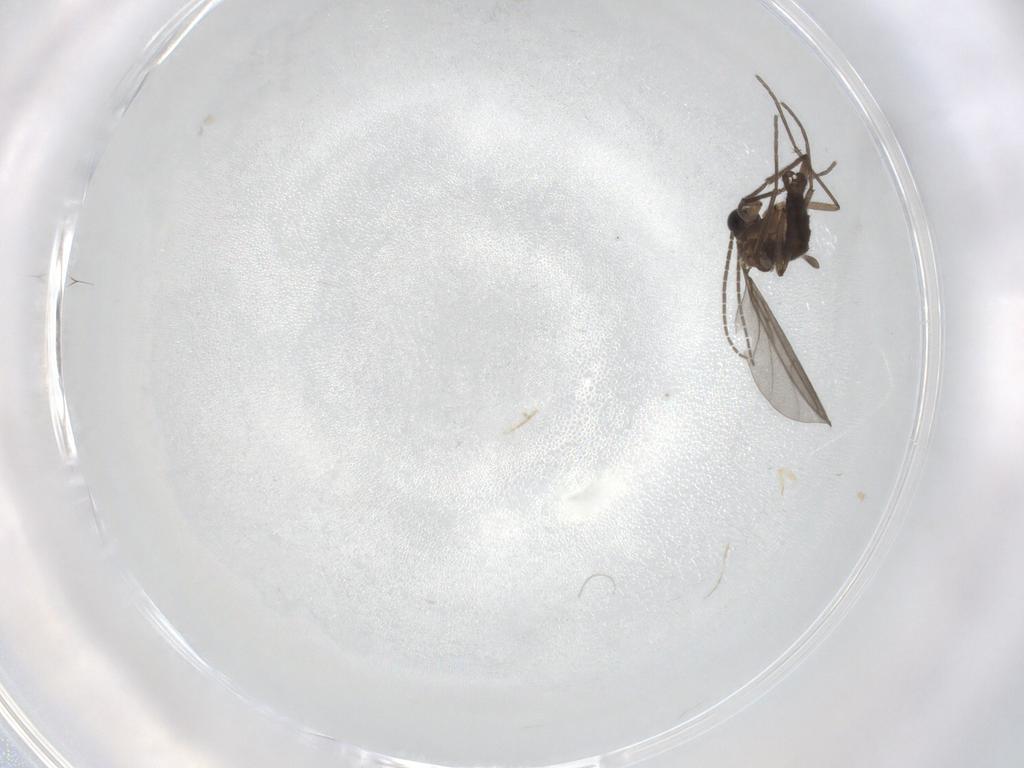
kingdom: Animalia
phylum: Arthropoda
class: Insecta
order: Diptera
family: Sciaridae
